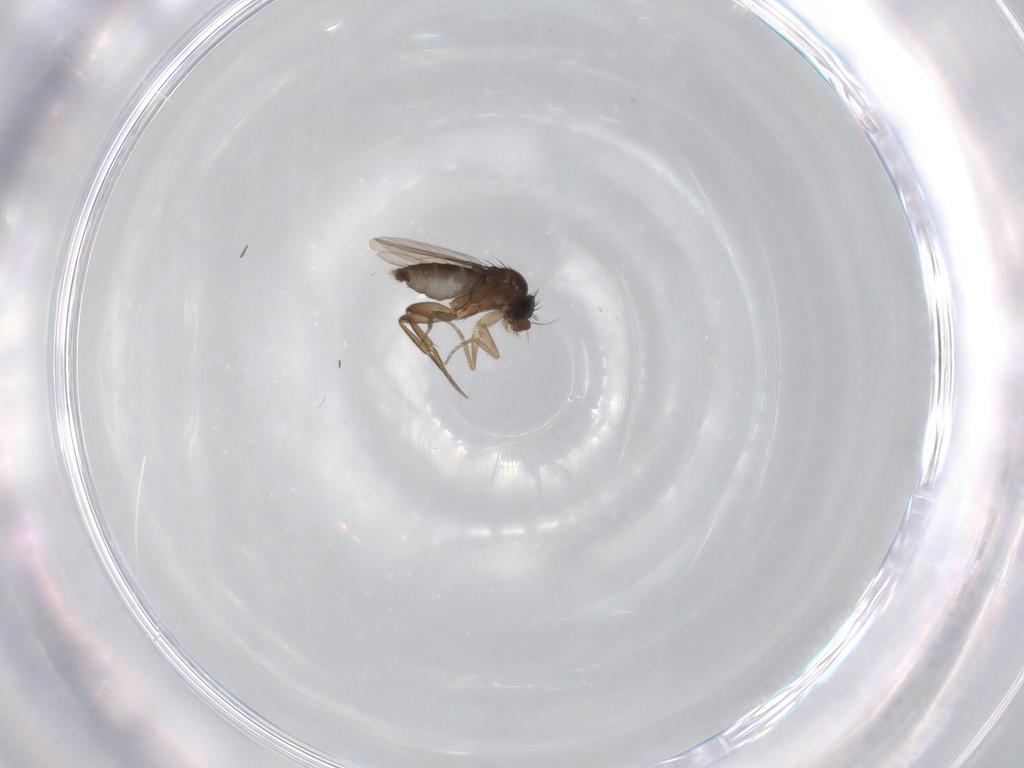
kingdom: Animalia
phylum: Arthropoda
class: Insecta
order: Diptera
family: Phoridae
